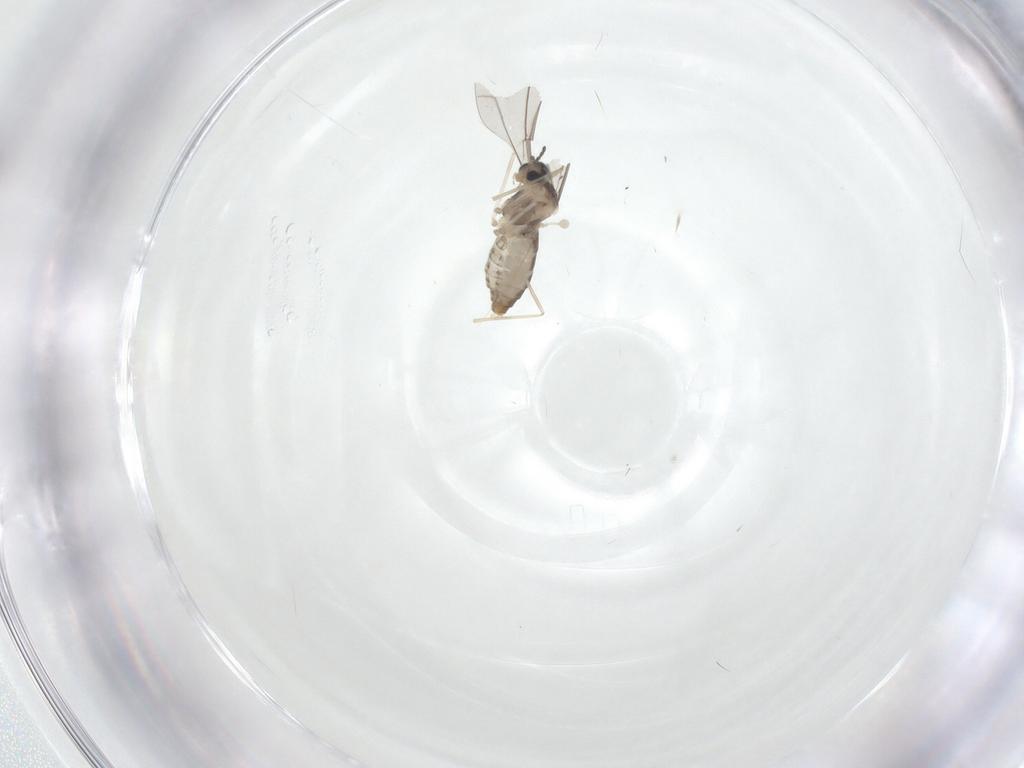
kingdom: Animalia
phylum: Arthropoda
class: Insecta
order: Diptera
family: Cecidomyiidae
